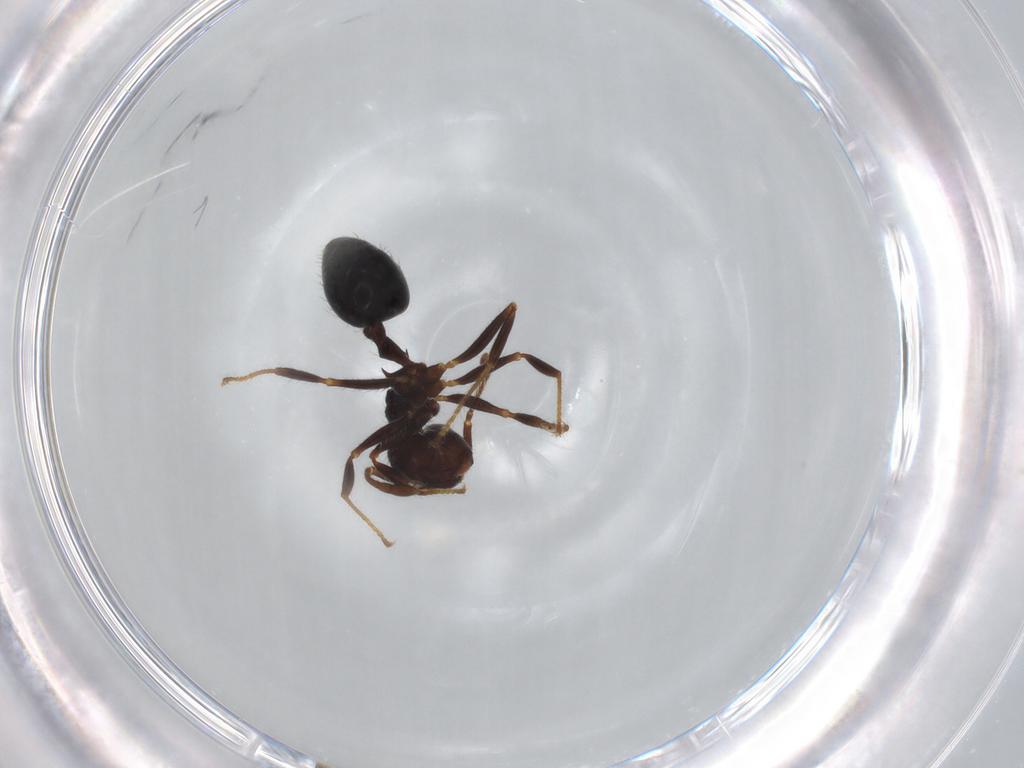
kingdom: Animalia
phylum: Arthropoda
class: Insecta
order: Hymenoptera
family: Formicidae
